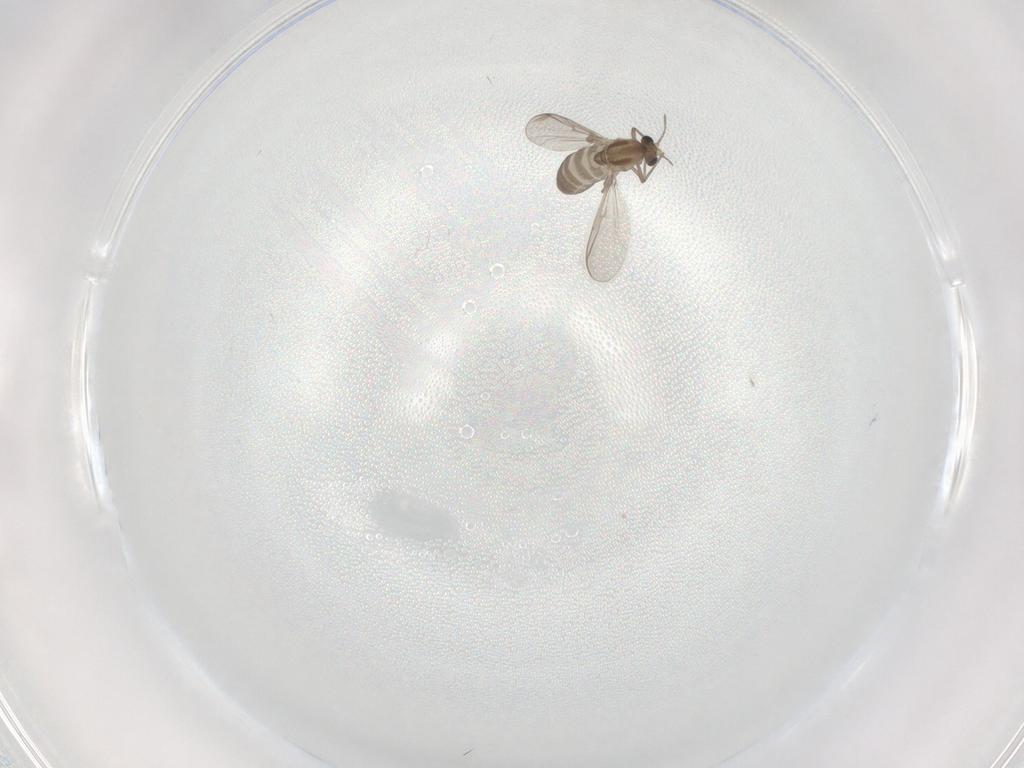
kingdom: Animalia
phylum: Arthropoda
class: Insecta
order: Diptera
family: Chironomidae
